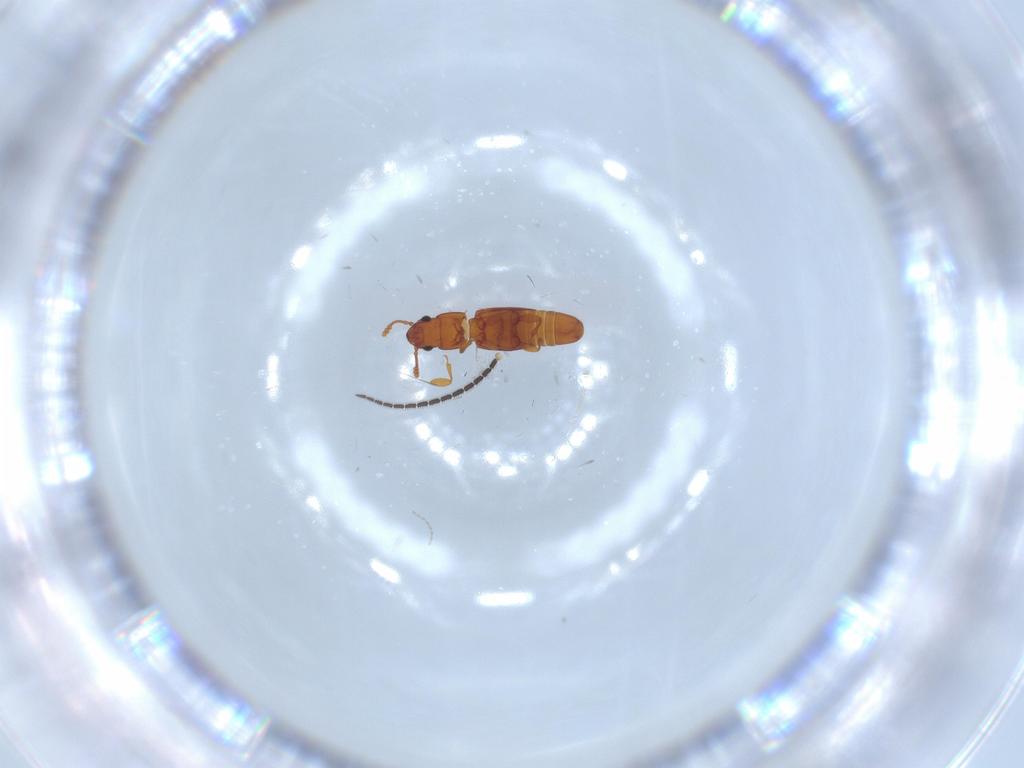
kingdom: Animalia
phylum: Arthropoda
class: Insecta
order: Coleoptera
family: Smicripidae
